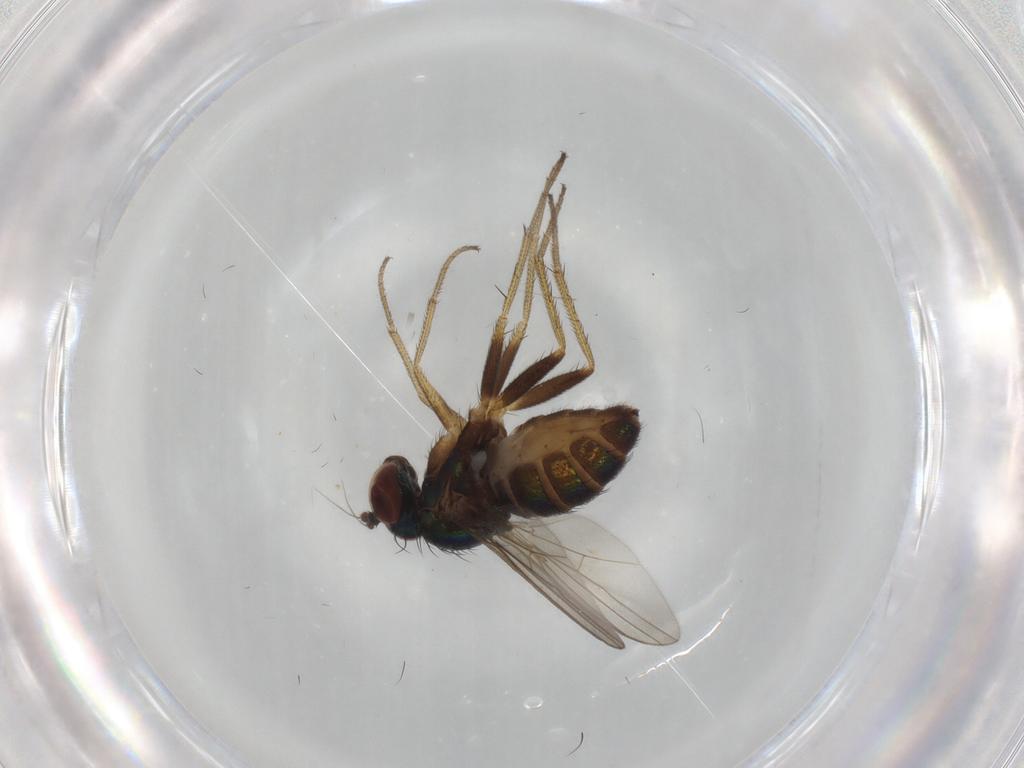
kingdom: Animalia
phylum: Arthropoda
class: Insecta
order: Diptera
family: Dolichopodidae
